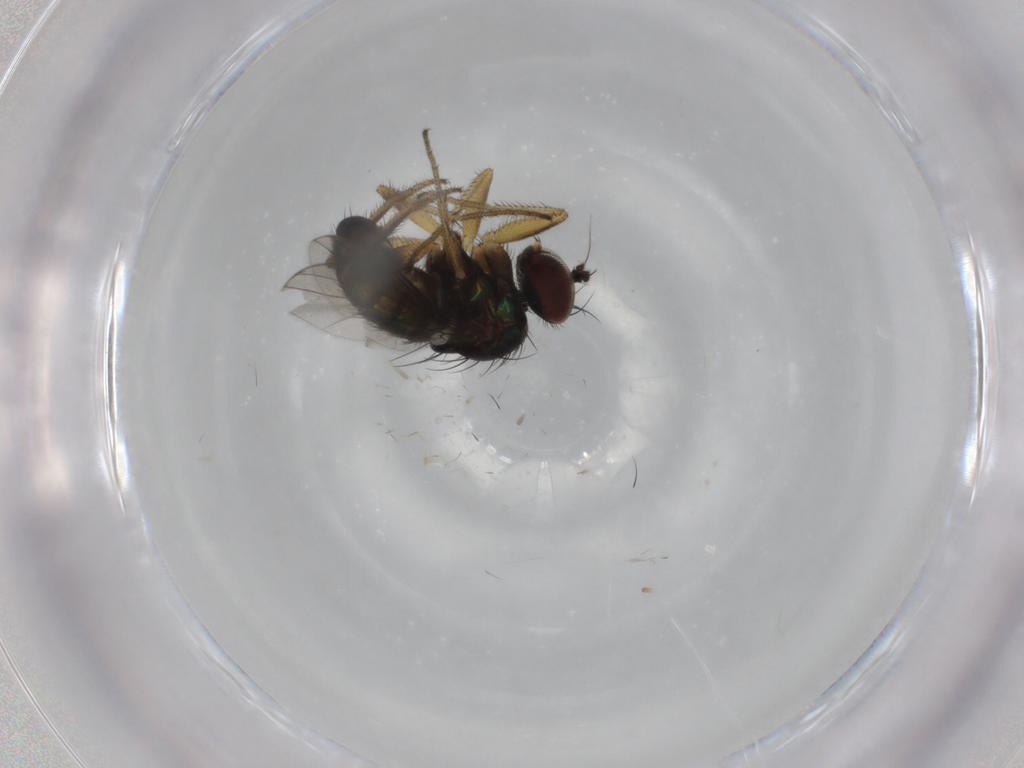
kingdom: Animalia
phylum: Arthropoda
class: Insecta
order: Diptera
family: Dolichopodidae
